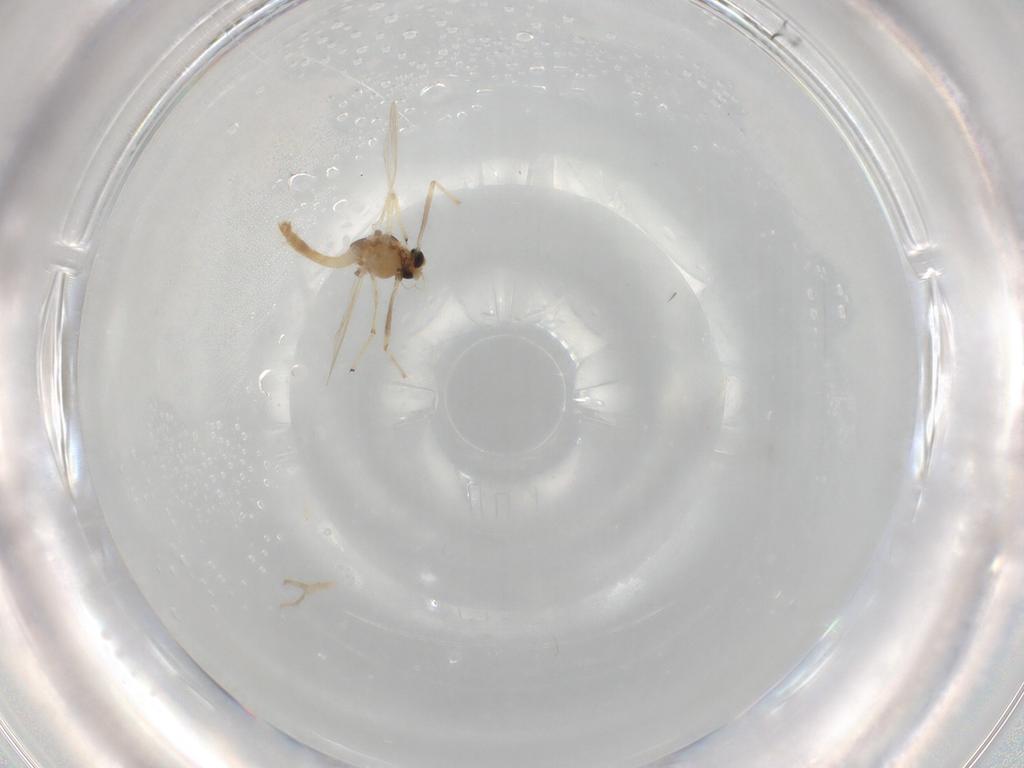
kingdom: Animalia
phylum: Arthropoda
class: Insecta
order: Diptera
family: Chironomidae
